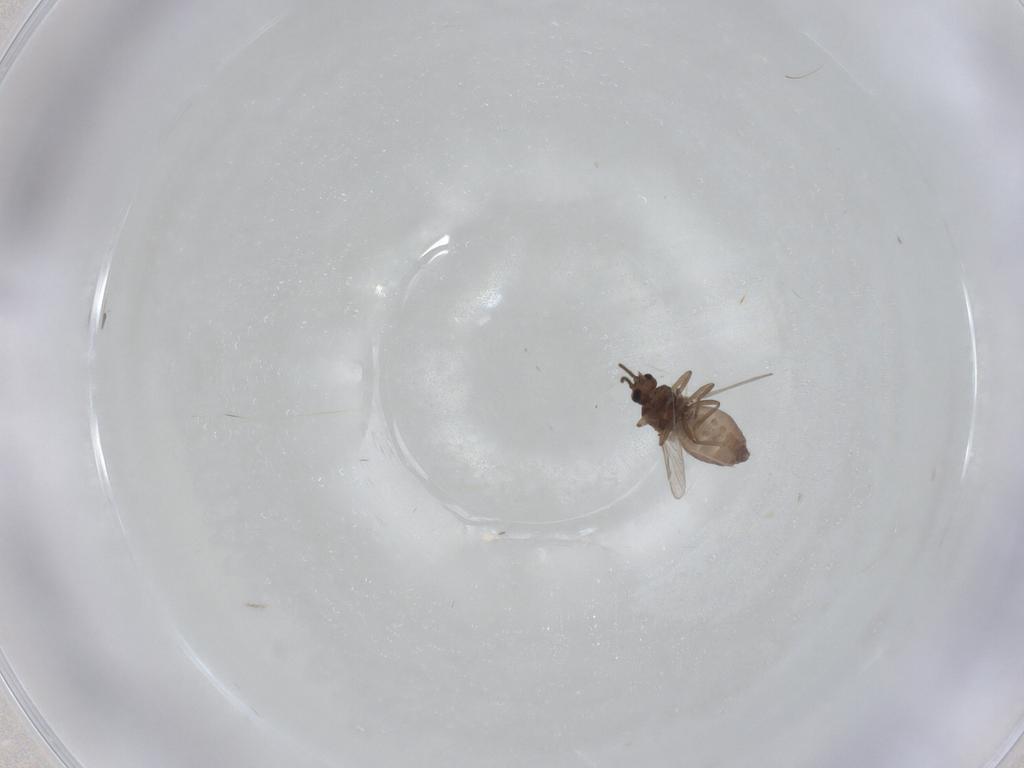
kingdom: Animalia
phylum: Arthropoda
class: Insecta
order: Diptera
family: Ceratopogonidae
